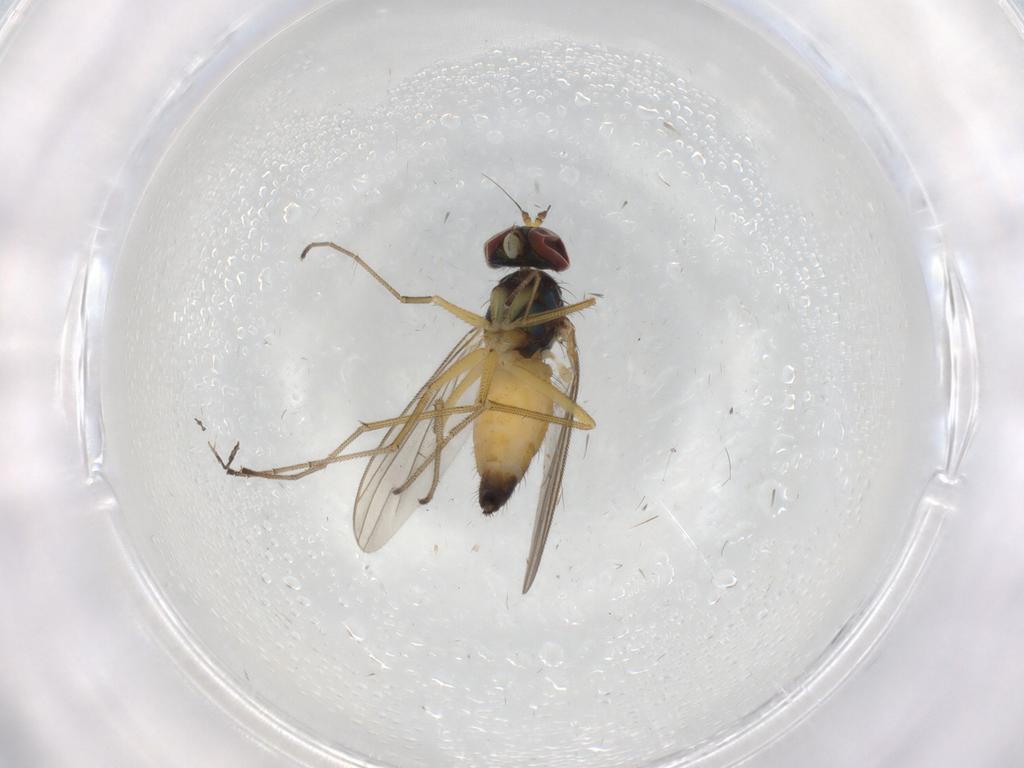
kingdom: Animalia
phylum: Arthropoda
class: Insecta
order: Diptera
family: Dolichopodidae
